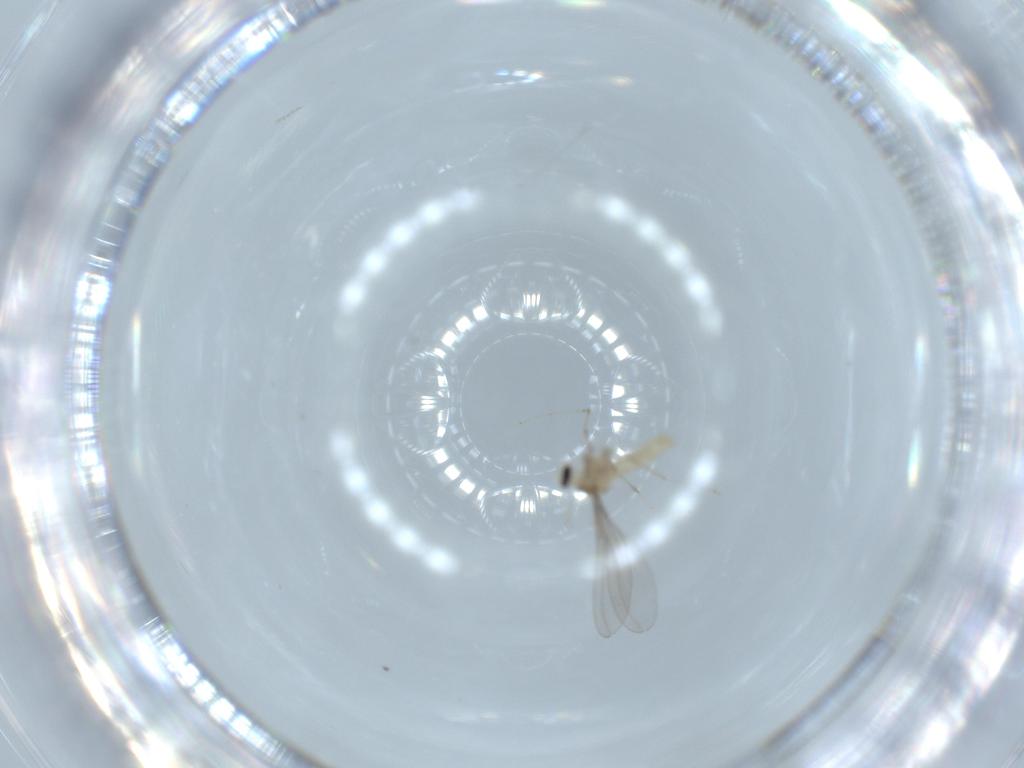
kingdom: Animalia
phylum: Arthropoda
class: Insecta
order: Diptera
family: Cecidomyiidae
